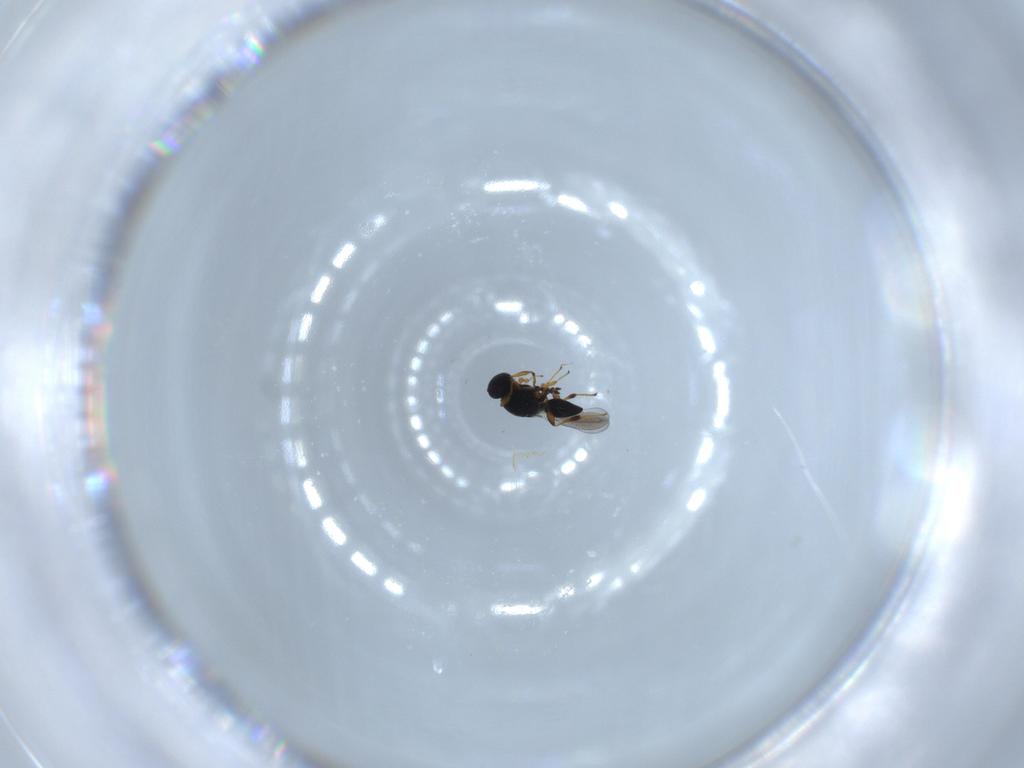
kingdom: Animalia
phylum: Arthropoda
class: Insecta
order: Hymenoptera
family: Platygastridae
